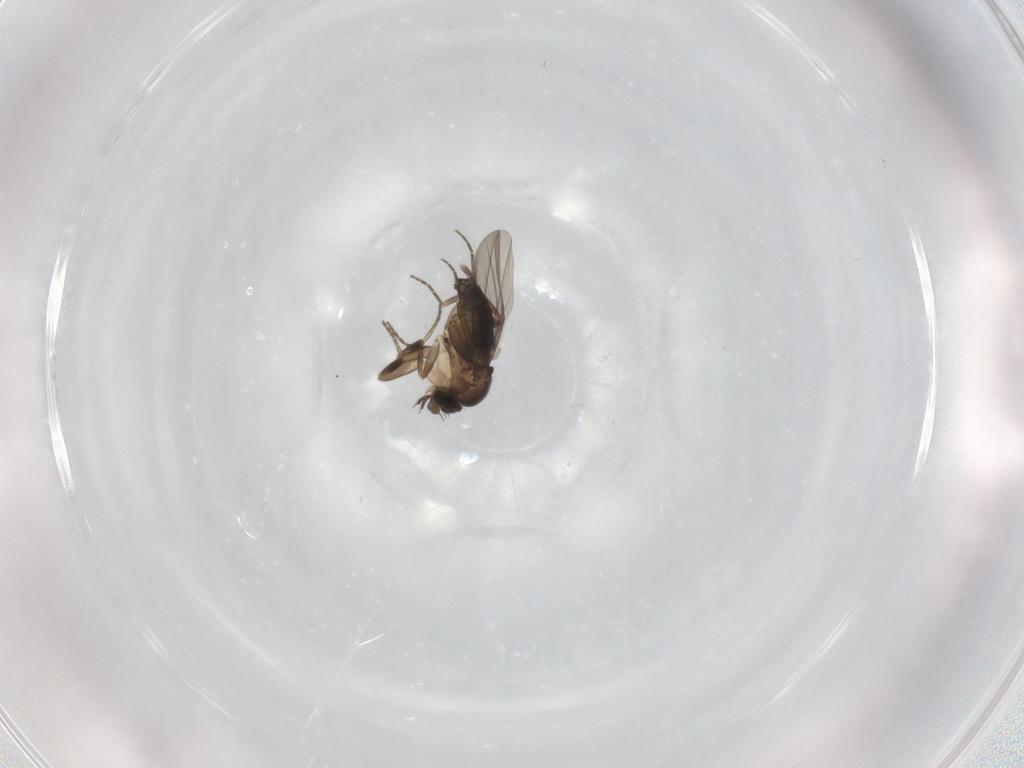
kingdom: Animalia
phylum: Arthropoda
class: Insecta
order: Diptera
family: Phoridae
